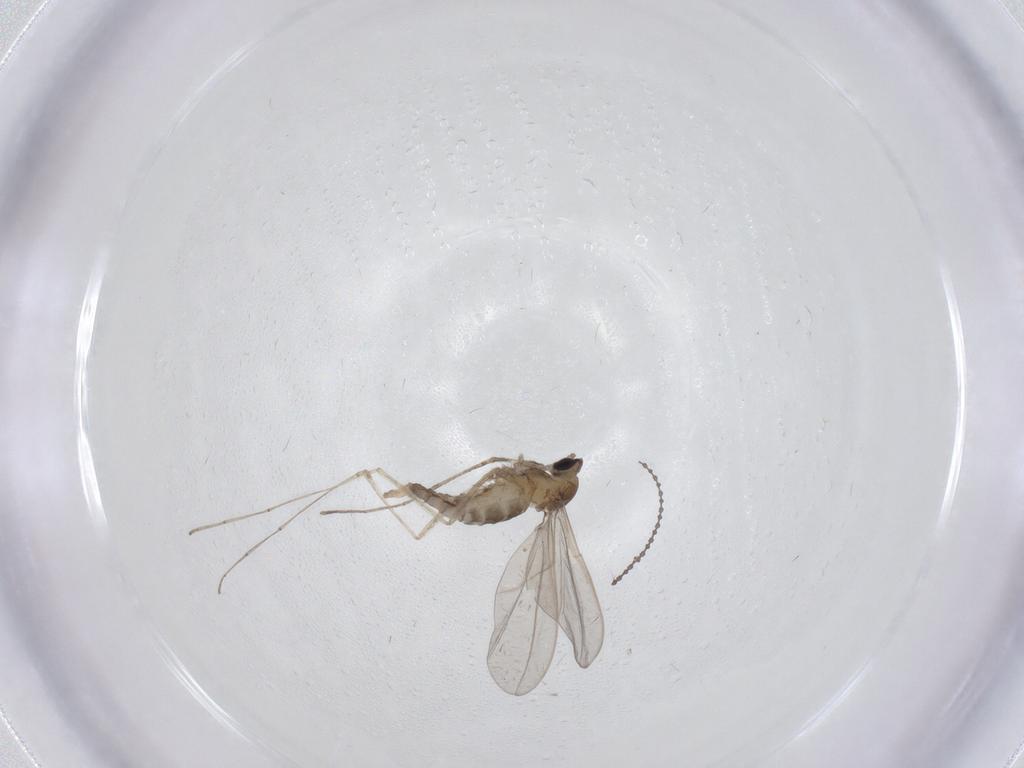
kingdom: Animalia
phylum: Arthropoda
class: Insecta
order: Diptera
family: Cecidomyiidae
